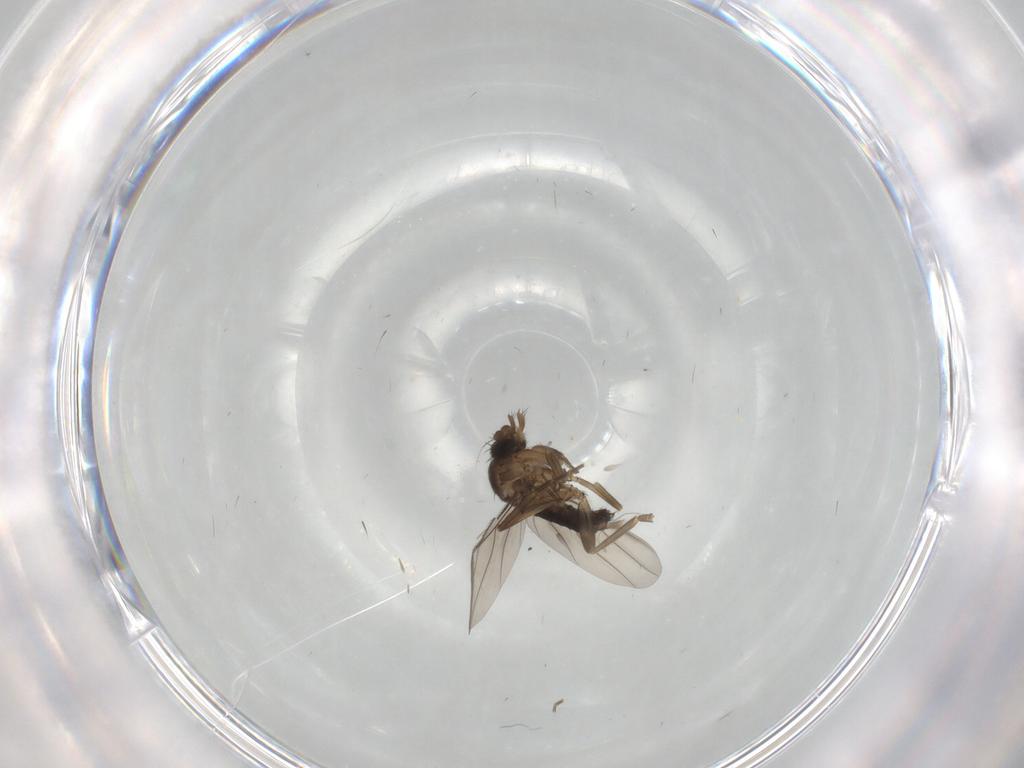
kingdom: Animalia
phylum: Arthropoda
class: Insecta
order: Diptera
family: Phoridae
